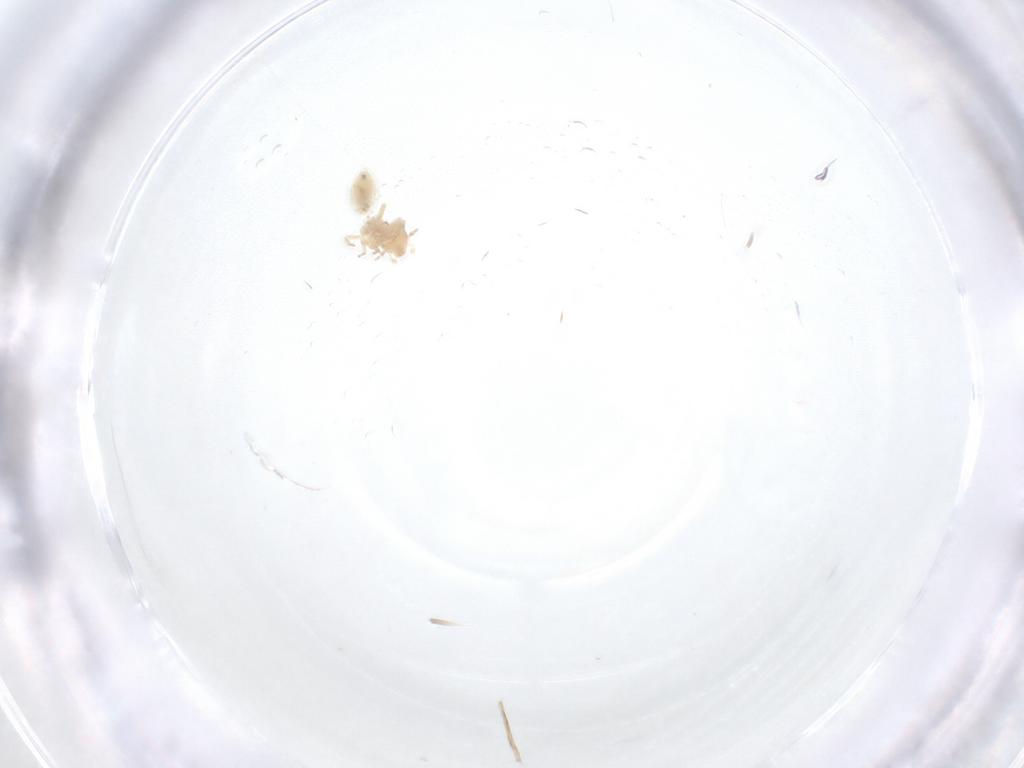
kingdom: Animalia
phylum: Arthropoda
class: Insecta
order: Psocodea
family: Lepidopsocidae
